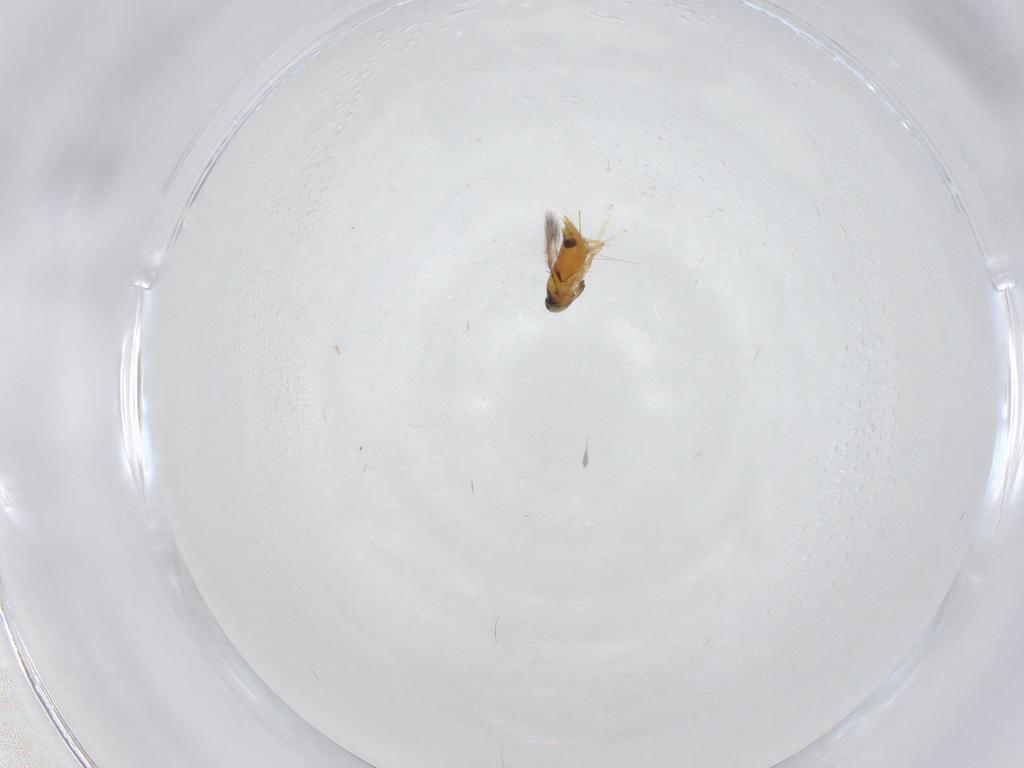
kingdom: Animalia
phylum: Arthropoda
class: Insecta
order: Hymenoptera
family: Signiphoridae
